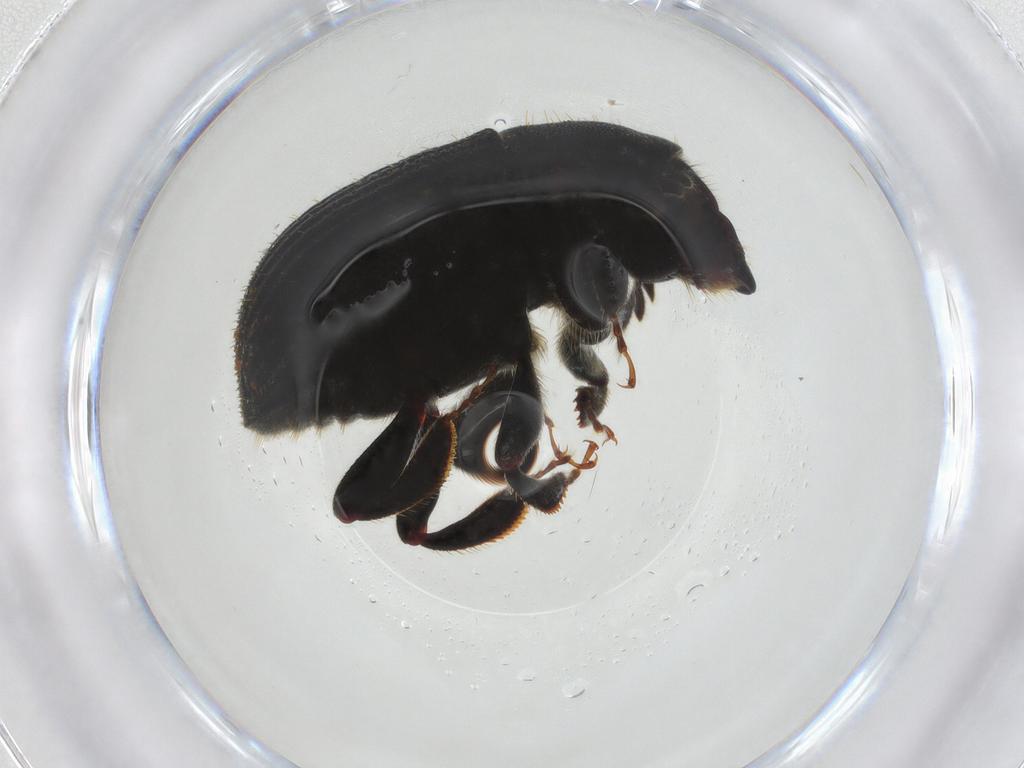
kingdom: Animalia
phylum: Arthropoda
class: Insecta
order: Coleoptera
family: Curculionidae
